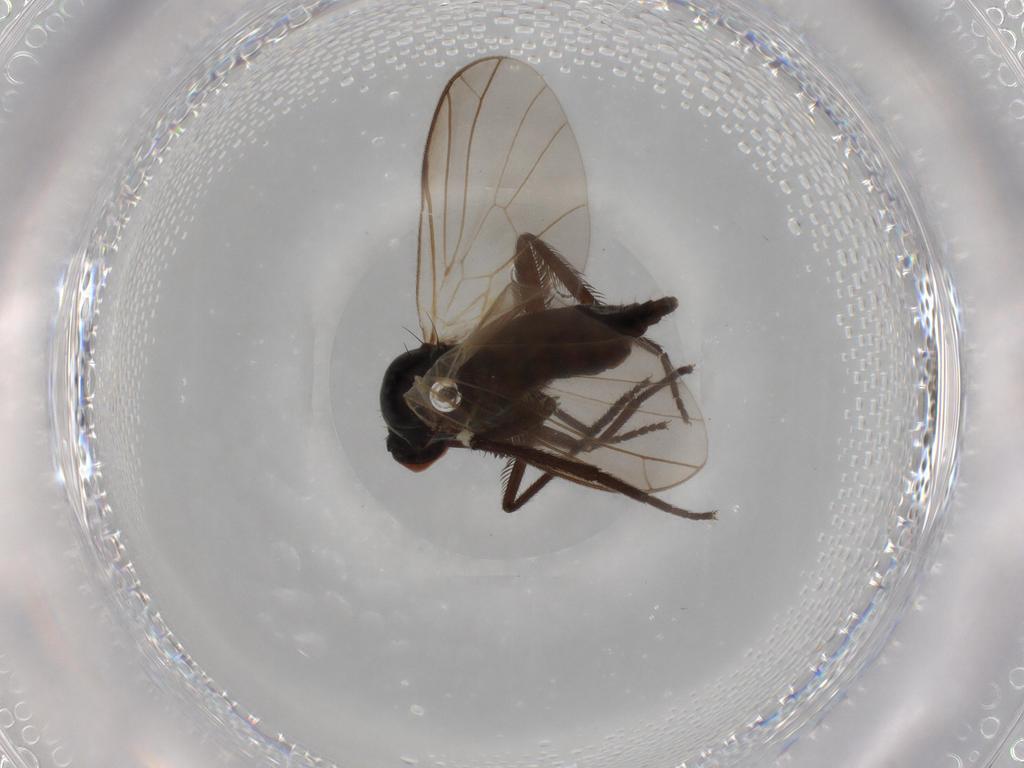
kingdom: Animalia
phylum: Arthropoda
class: Insecta
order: Diptera
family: Empididae
